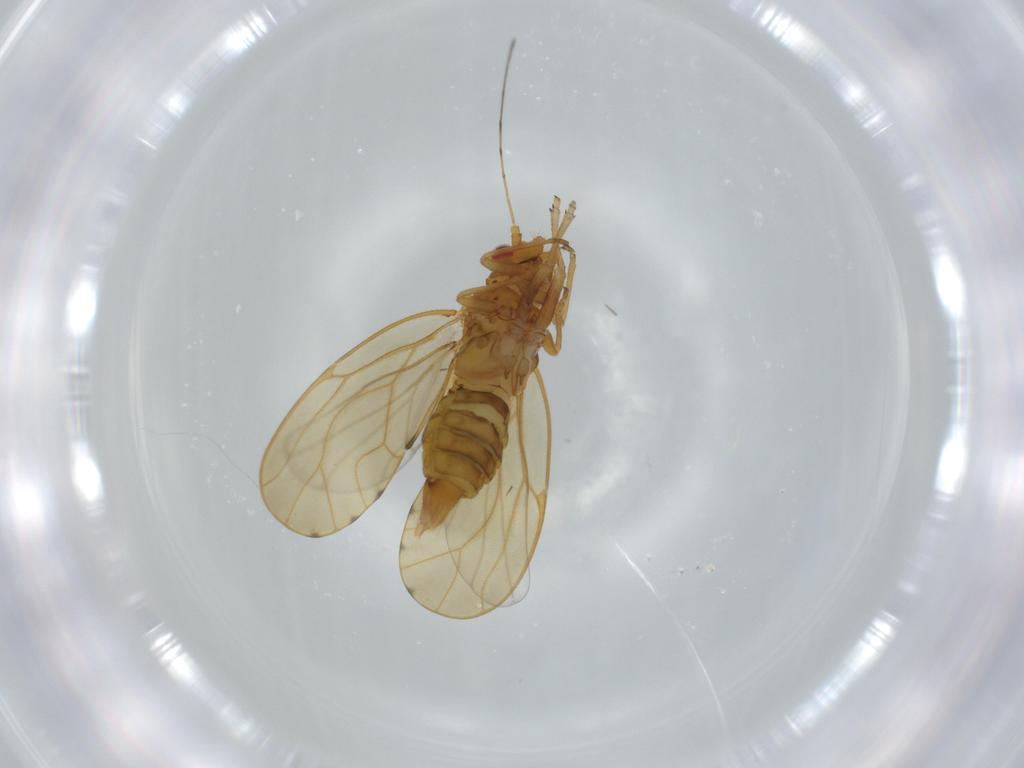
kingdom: Animalia
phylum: Arthropoda
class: Insecta
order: Hemiptera
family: Psylloidea_incertae_sedis
